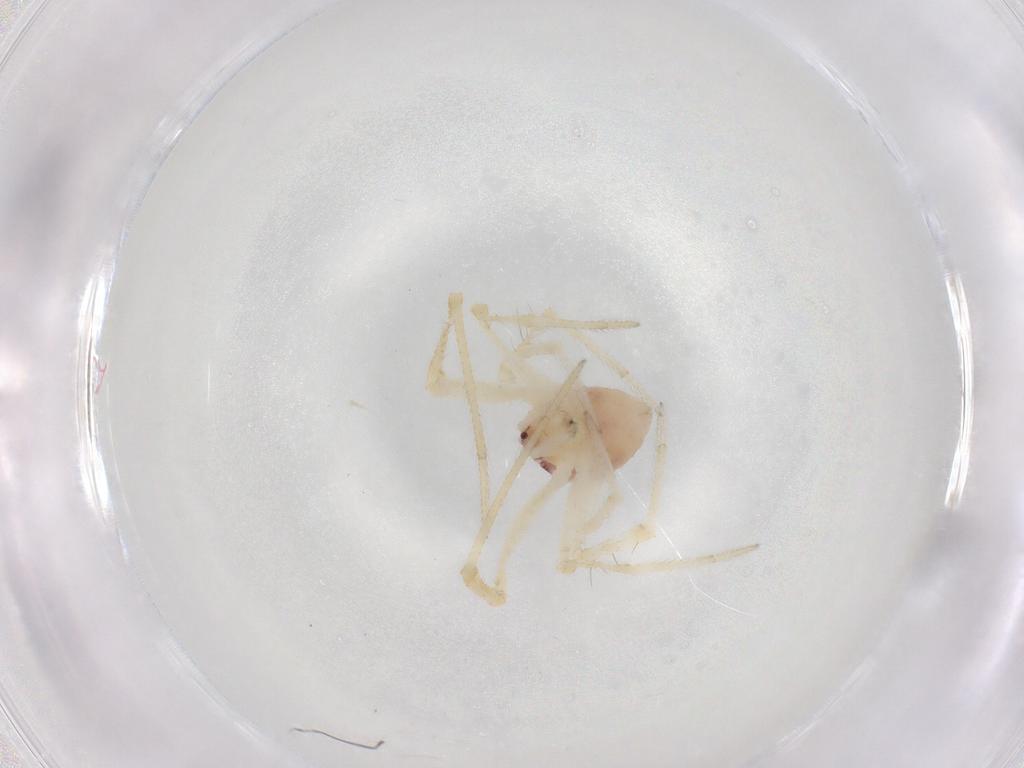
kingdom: Animalia
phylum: Arthropoda
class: Arachnida
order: Araneae
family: Theridiidae
